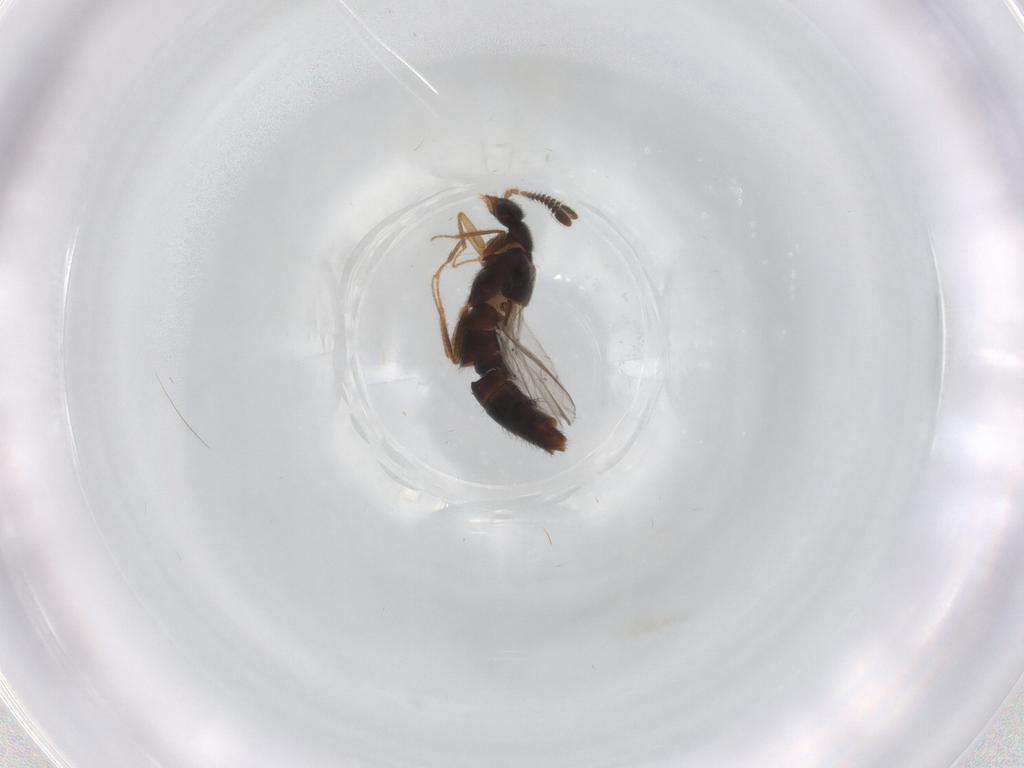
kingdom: Animalia
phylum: Arthropoda
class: Insecta
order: Coleoptera
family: Staphylinidae
